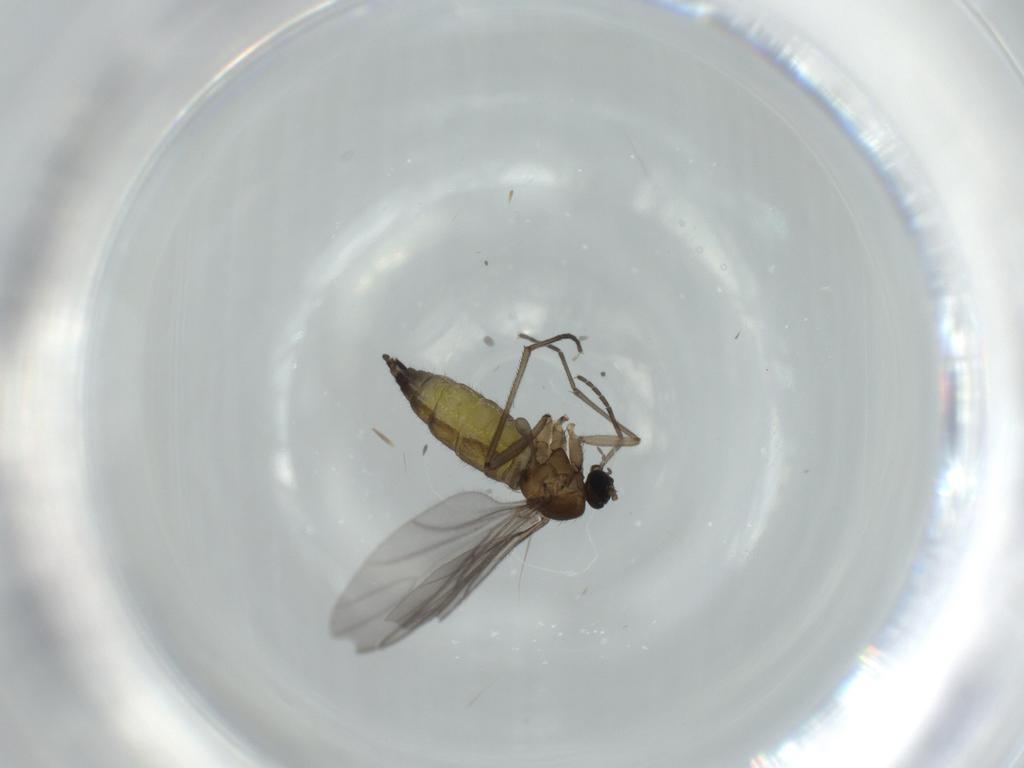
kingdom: Animalia
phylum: Arthropoda
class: Insecta
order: Diptera
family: Sciaridae
